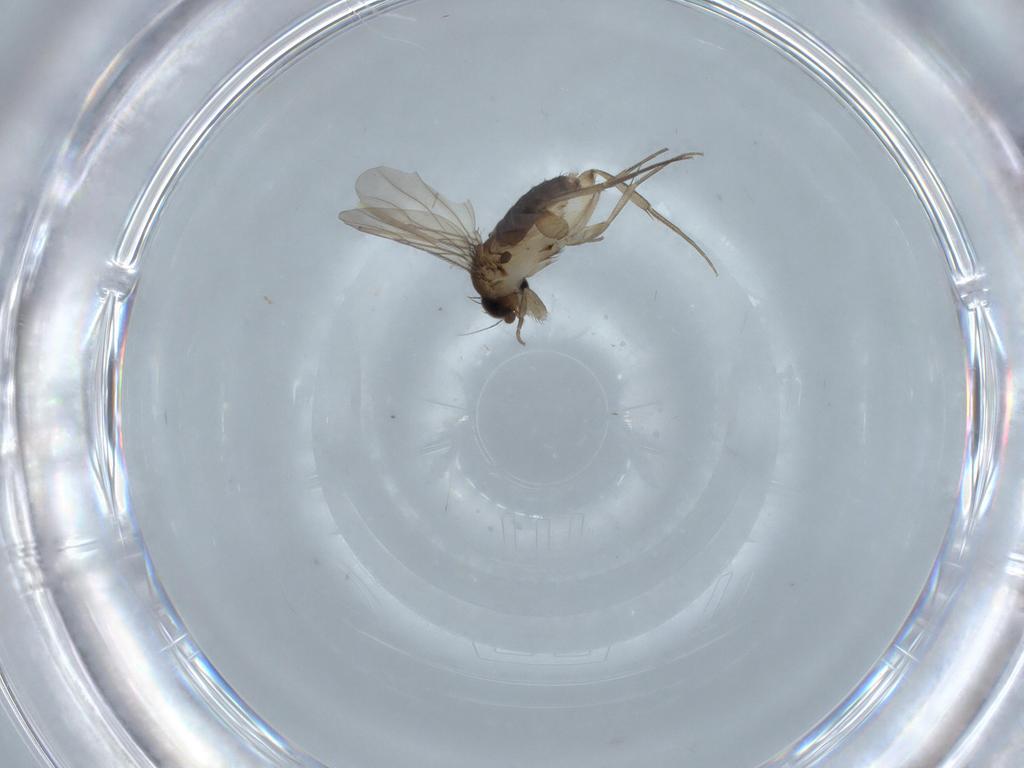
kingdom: Animalia
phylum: Arthropoda
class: Insecta
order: Diptera
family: Phoridae
